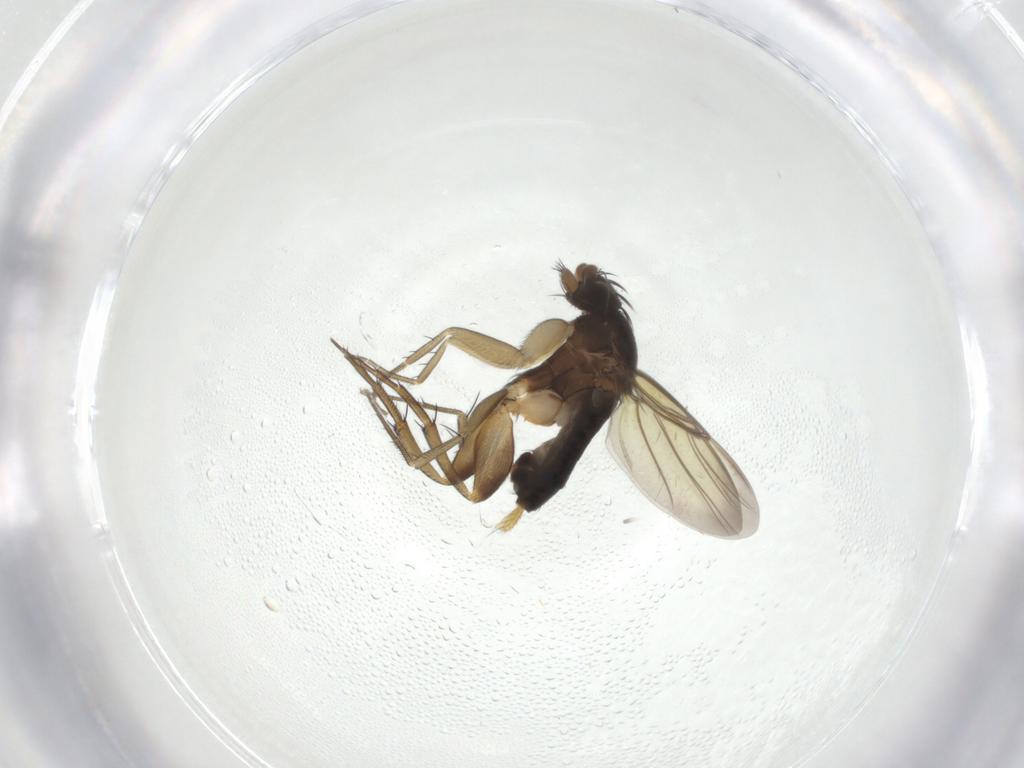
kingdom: Animalia
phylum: Arthropoda
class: Insecta
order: Diptera
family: Phoridae
